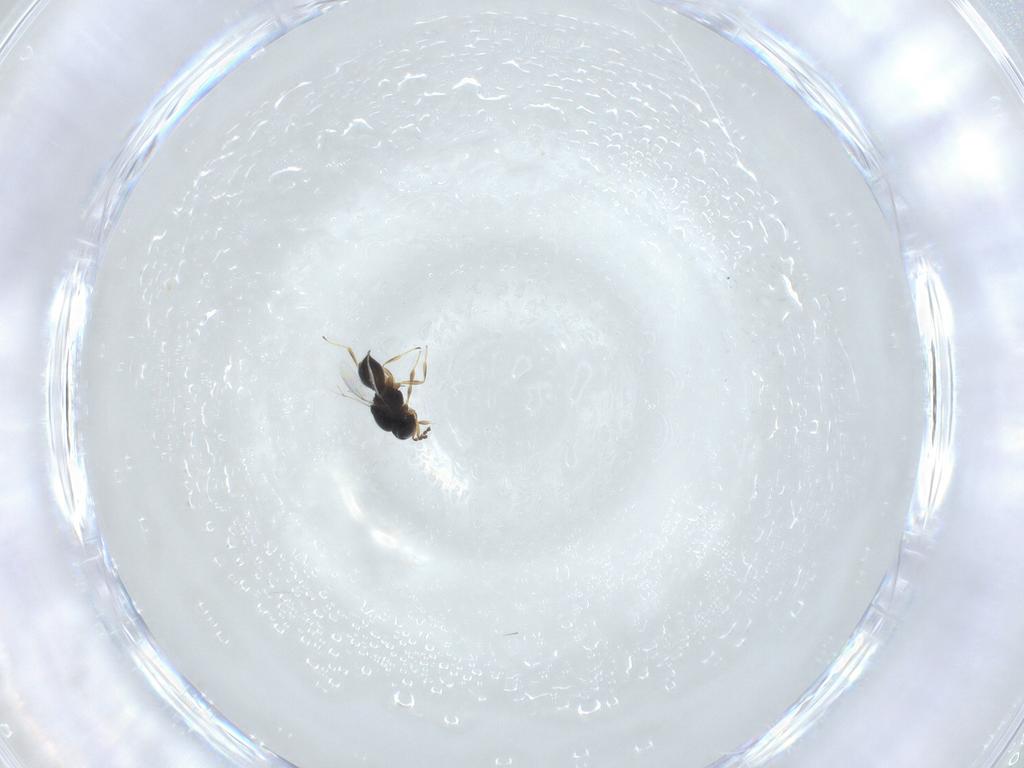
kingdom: Animalia
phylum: Arthropoda
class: Insecta
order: Hymenoptera
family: Scelionidae
